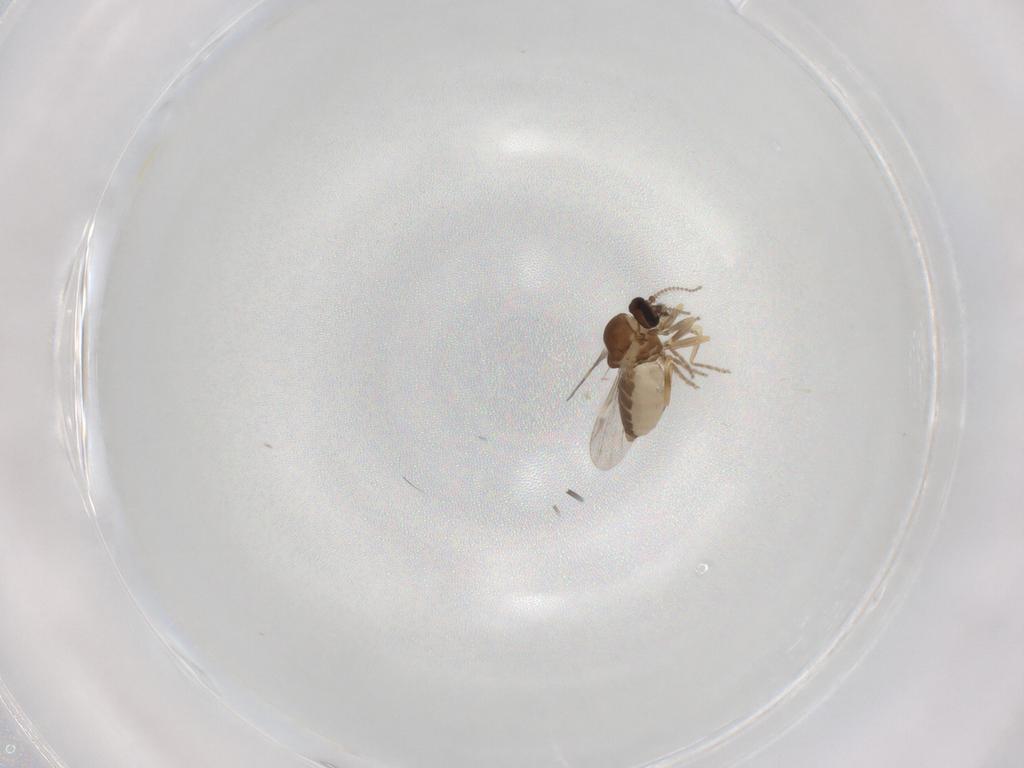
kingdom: Animalia
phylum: Arthropoda
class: Insecta
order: Diptera
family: Ceratopogonidae
